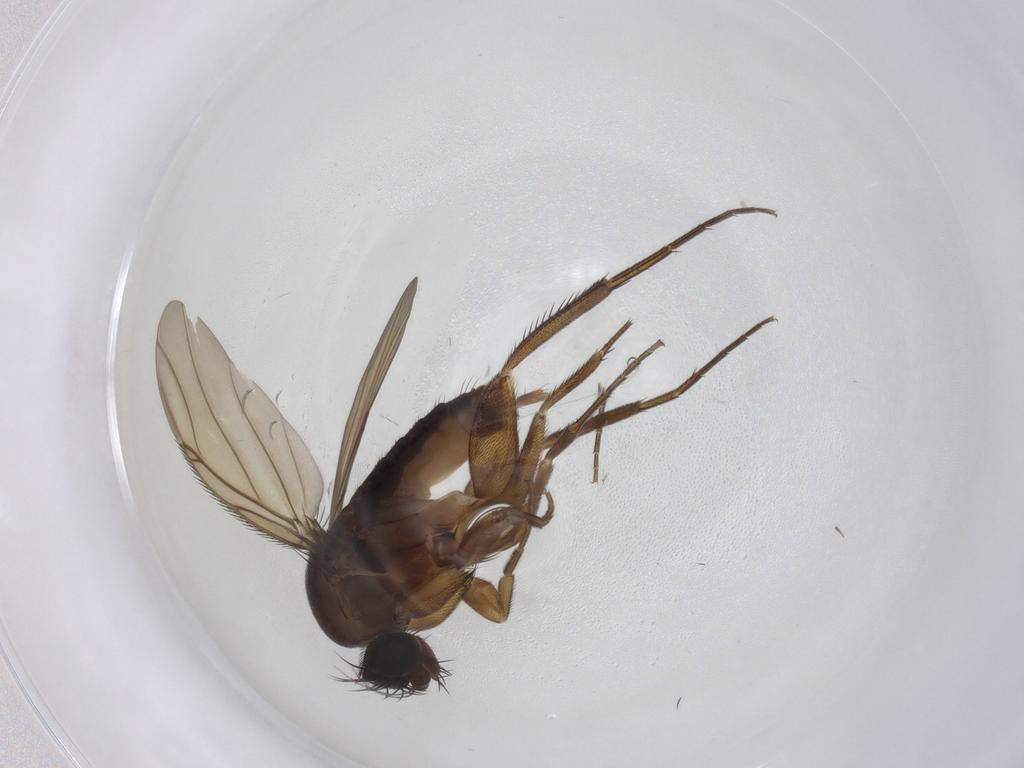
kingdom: Animalia
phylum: Arthropoda
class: Insecta
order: Diptera
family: Phoridae
